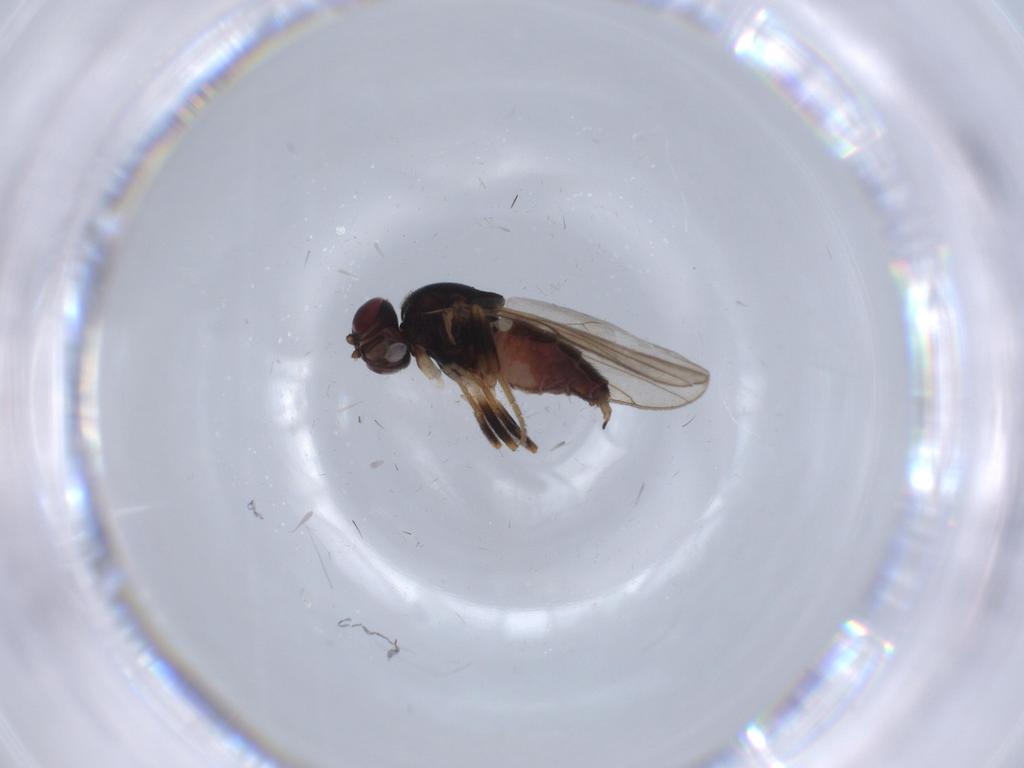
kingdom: Animalia
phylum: Arthropoda
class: Insecta
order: Diptera
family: Chloropidae
